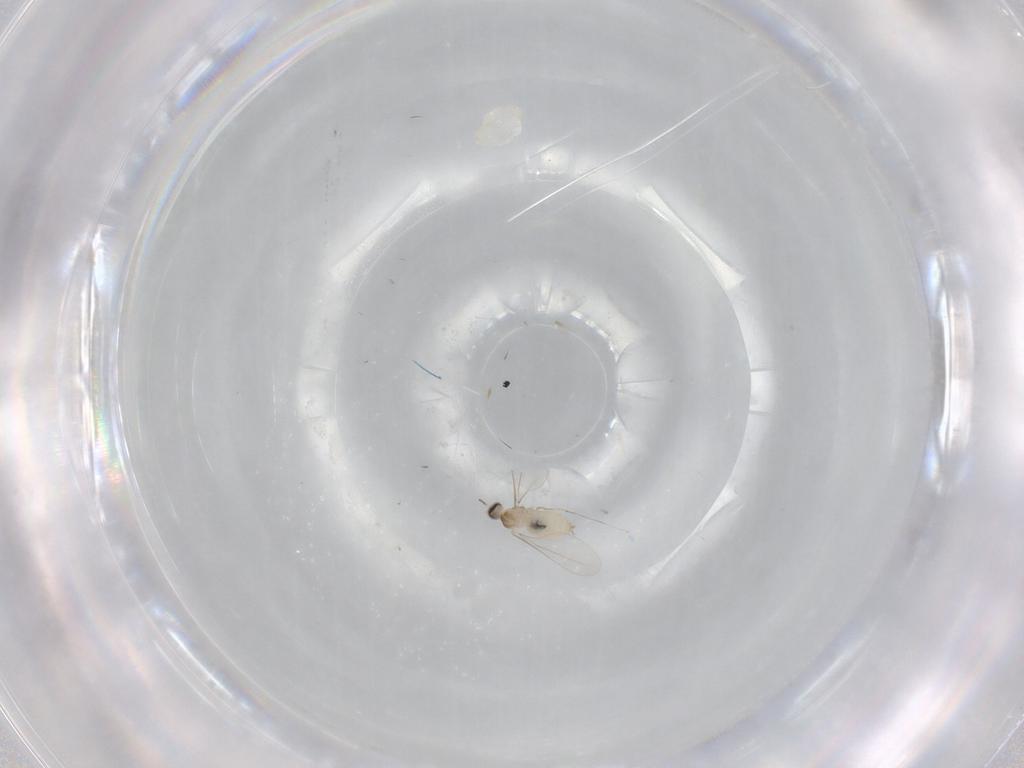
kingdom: Animalia
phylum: Arthropoda
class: Insecta
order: Diptera
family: Cecidomyiidae
